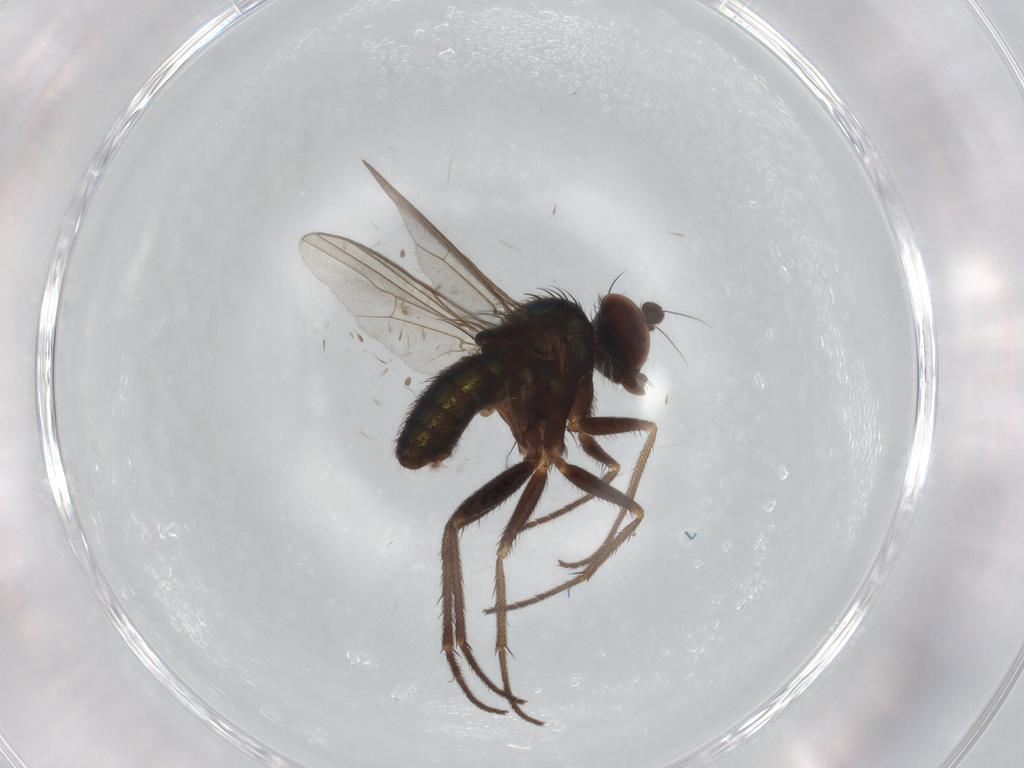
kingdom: Animalia
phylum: Arthropoda
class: Insecta
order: Diptera
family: Dolichopodidae
